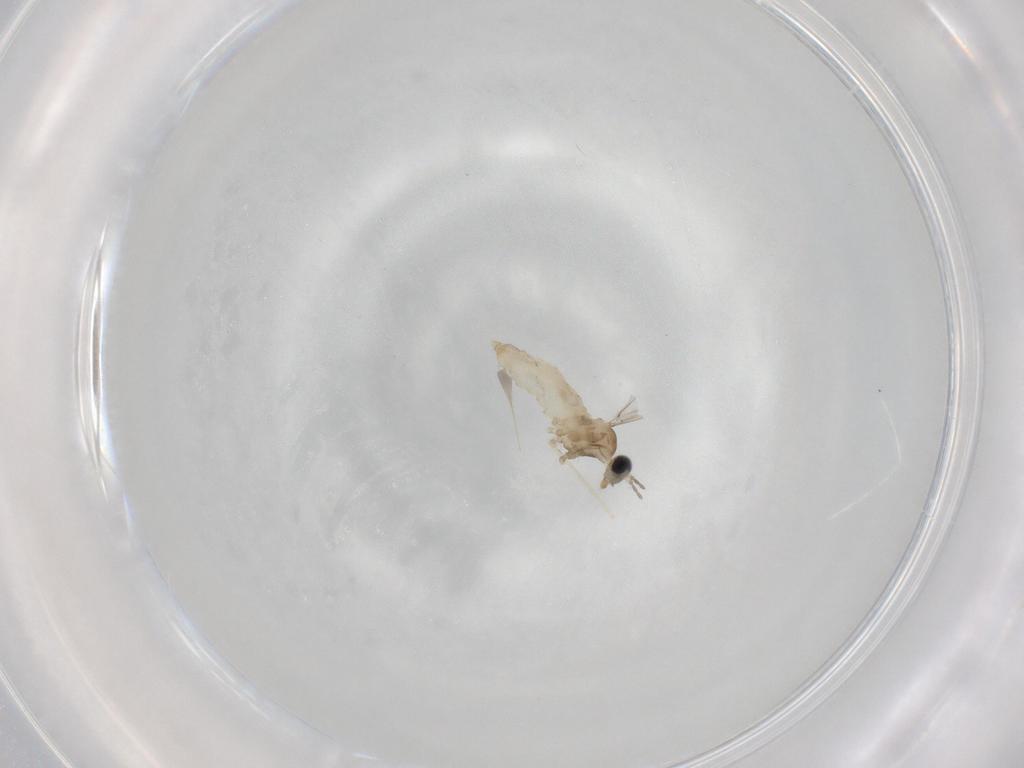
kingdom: Animalia
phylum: Arthropoda
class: Insecta
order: Diptera
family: Cecidomyiidae
